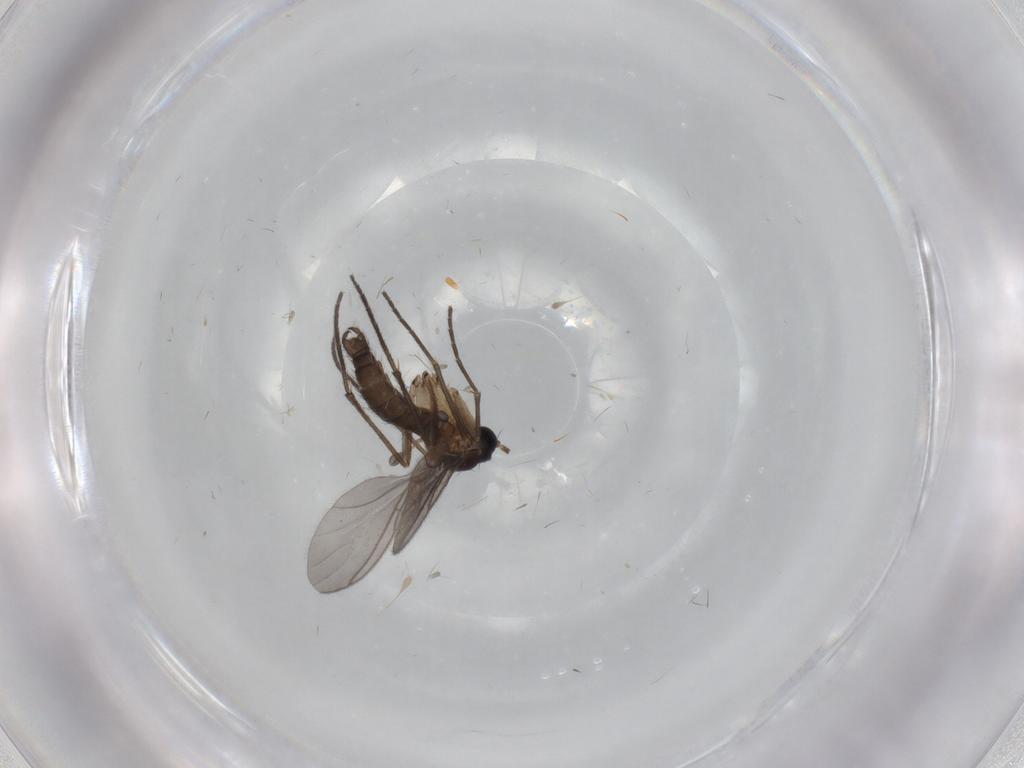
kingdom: Animalia
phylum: Arthropoda
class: Insecta
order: Diptera
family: Sciaridae
